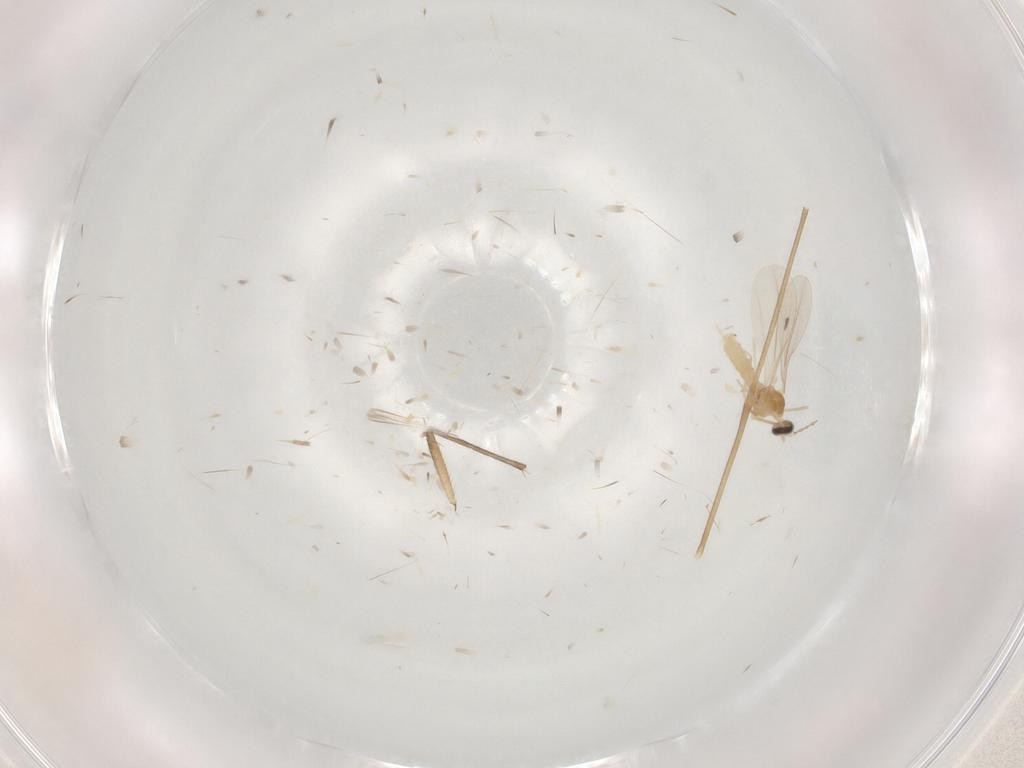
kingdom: Animalia
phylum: Arthropoda
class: Insecta
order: Diptera
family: Cecidomyiidae
